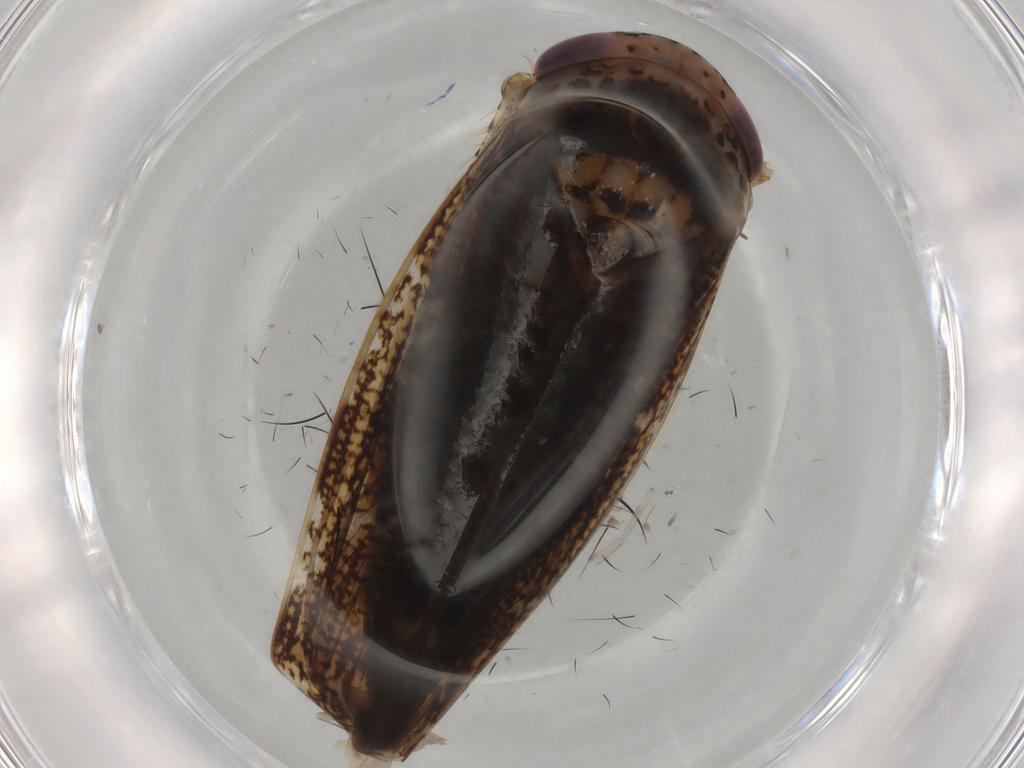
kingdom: Animalia
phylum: Arthropoda
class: Insecta
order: Hemiptera
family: Cicadellidae
